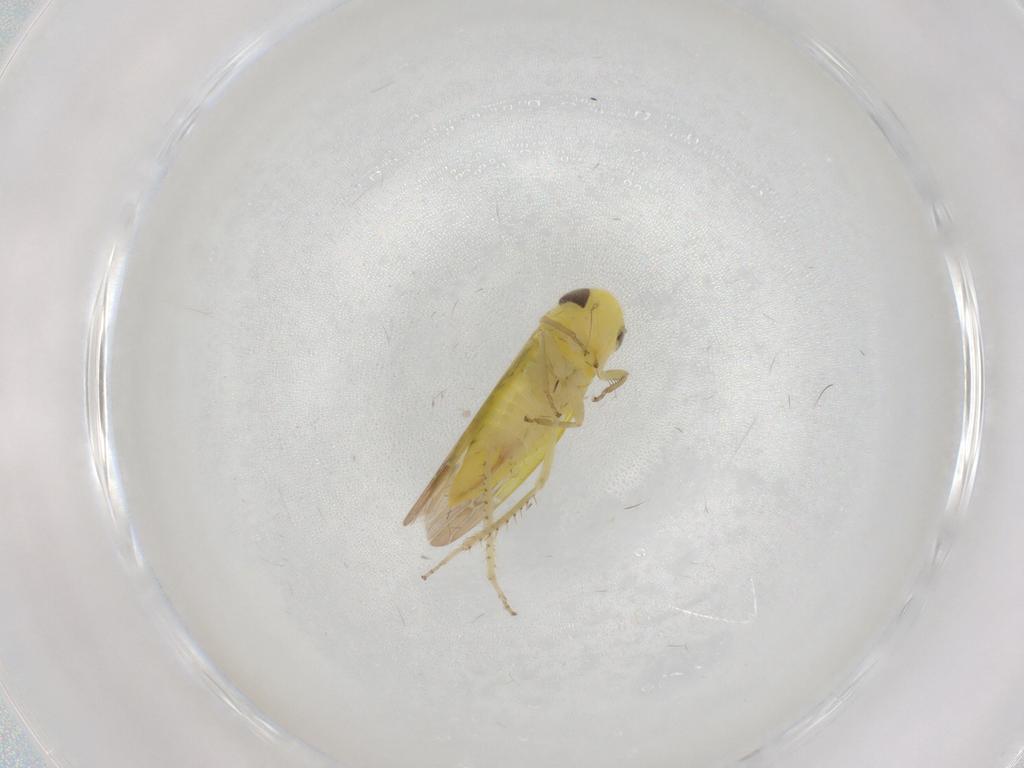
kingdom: Animalia
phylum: Arthropoda
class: Insecta
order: Hemiptera
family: Cicadellidae
